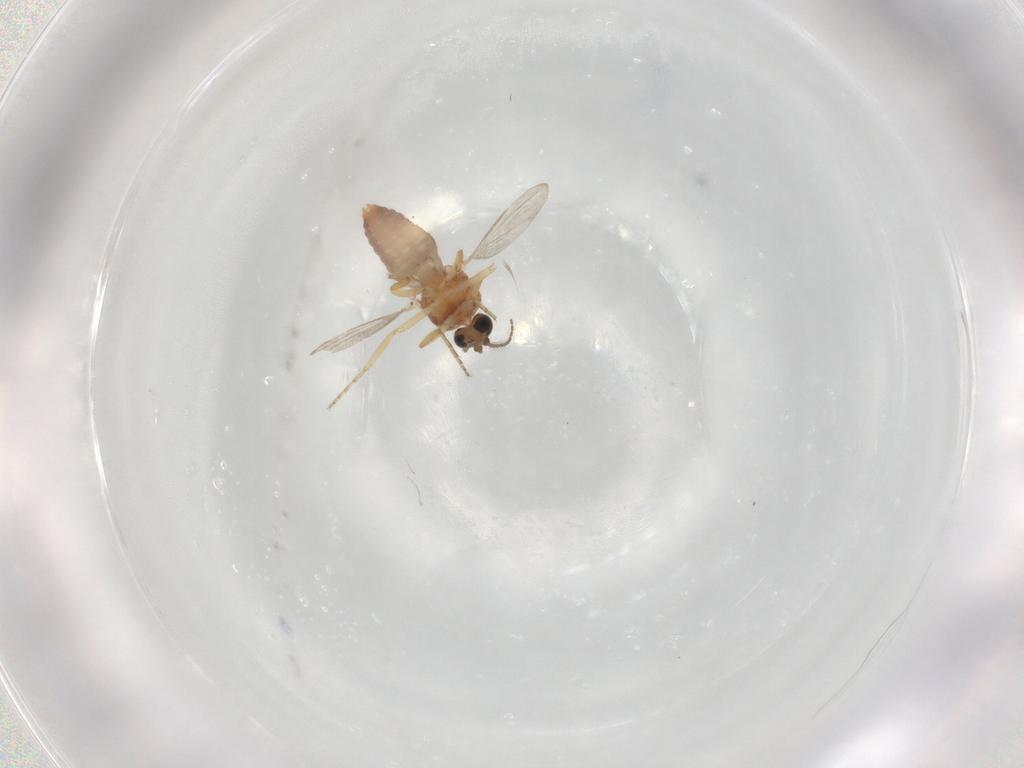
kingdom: Animalia
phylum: Arthropoda
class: Insecta
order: Diptera
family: Ceratopogonidae
